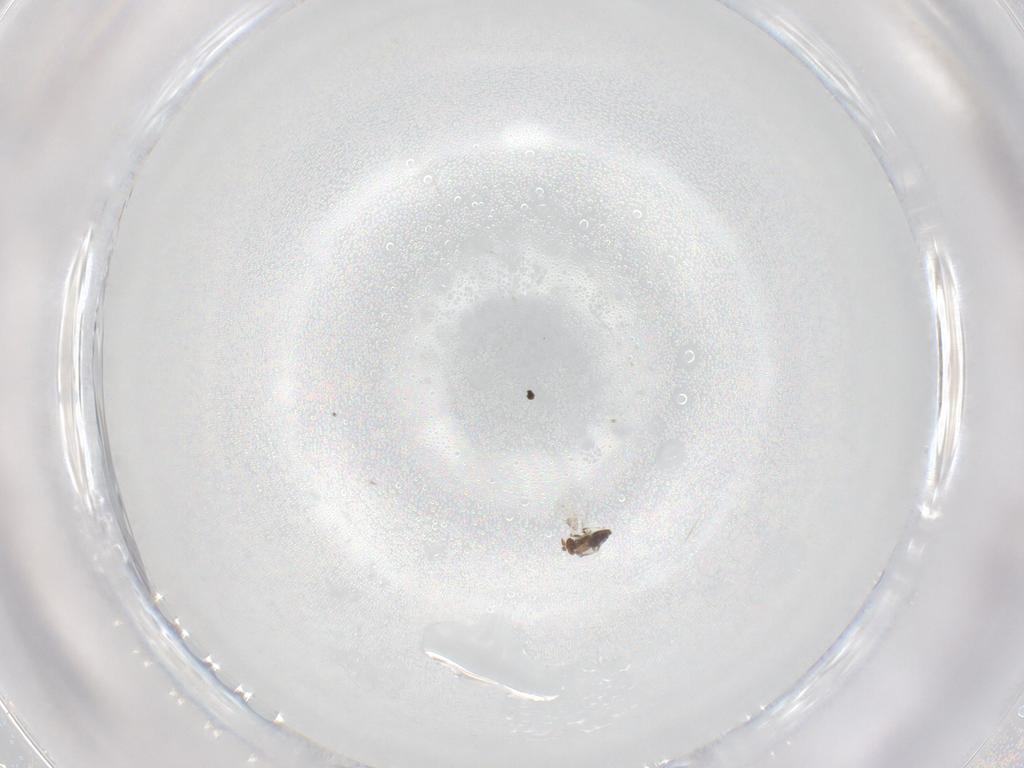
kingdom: Animalia
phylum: Arthropoda
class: Insecta
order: Hymenoptera
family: Trichogrammatidae
